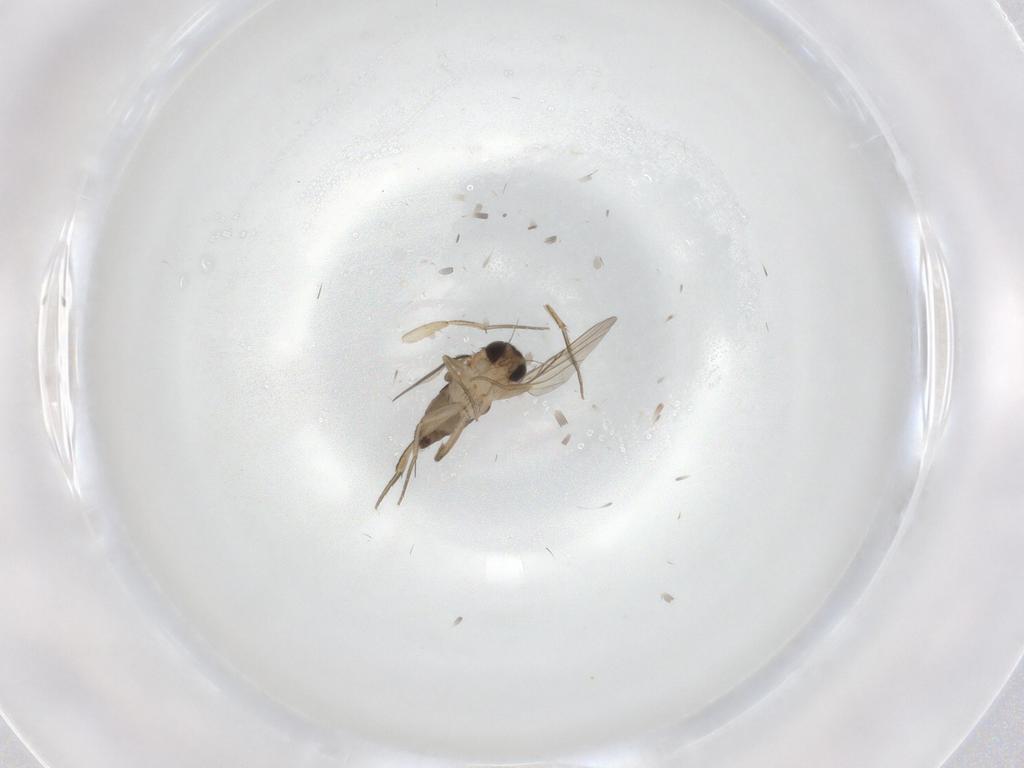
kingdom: Animalia
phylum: Arthropoda
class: Insecta
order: Diptera
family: Phoridae
